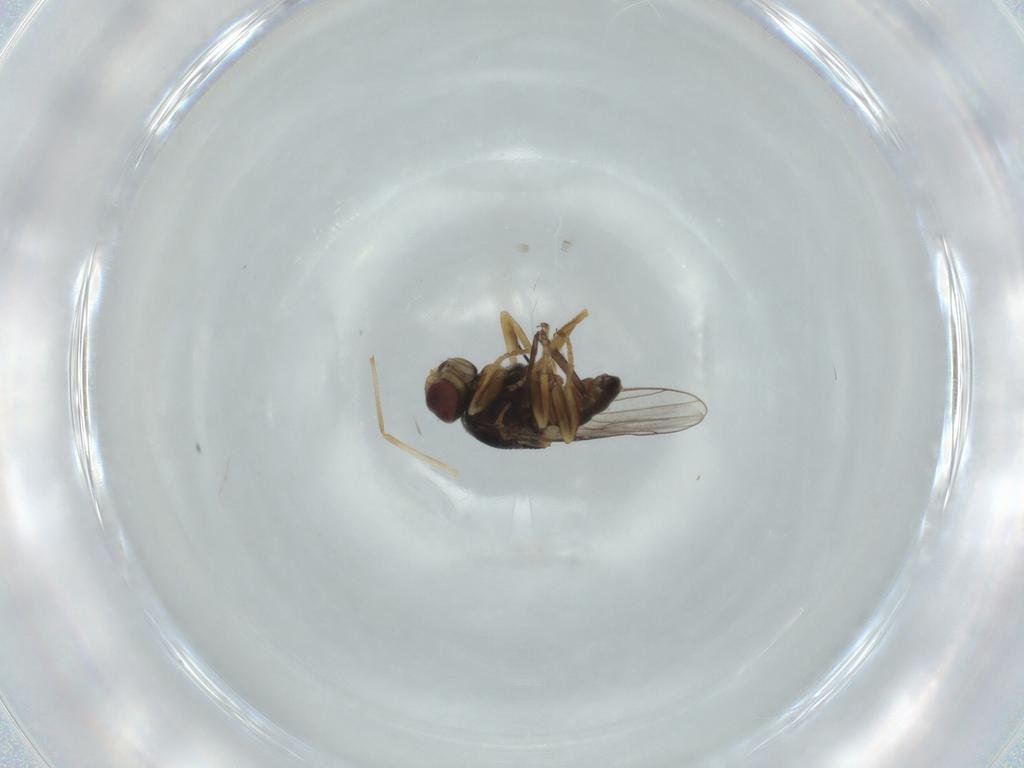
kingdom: Animalia
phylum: Arthropoda
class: Insecta
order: Diptera
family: Chloropidae
